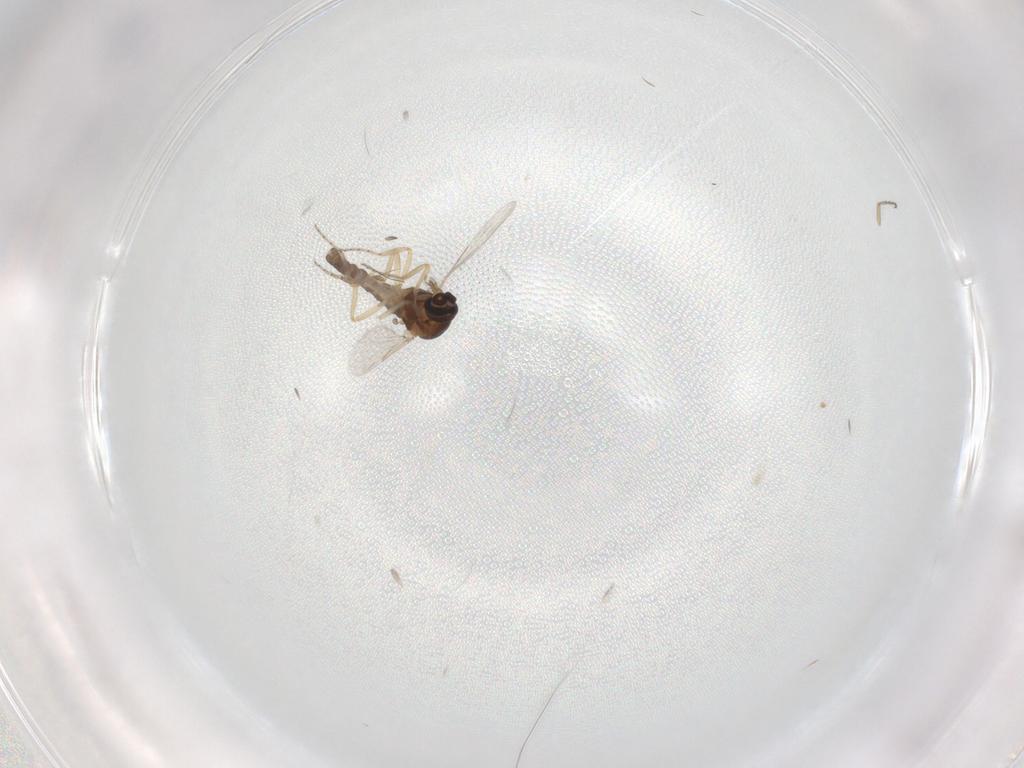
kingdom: Animalia
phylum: Arthropoda
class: Insecta
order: Diptera
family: Ceratopogonidae
